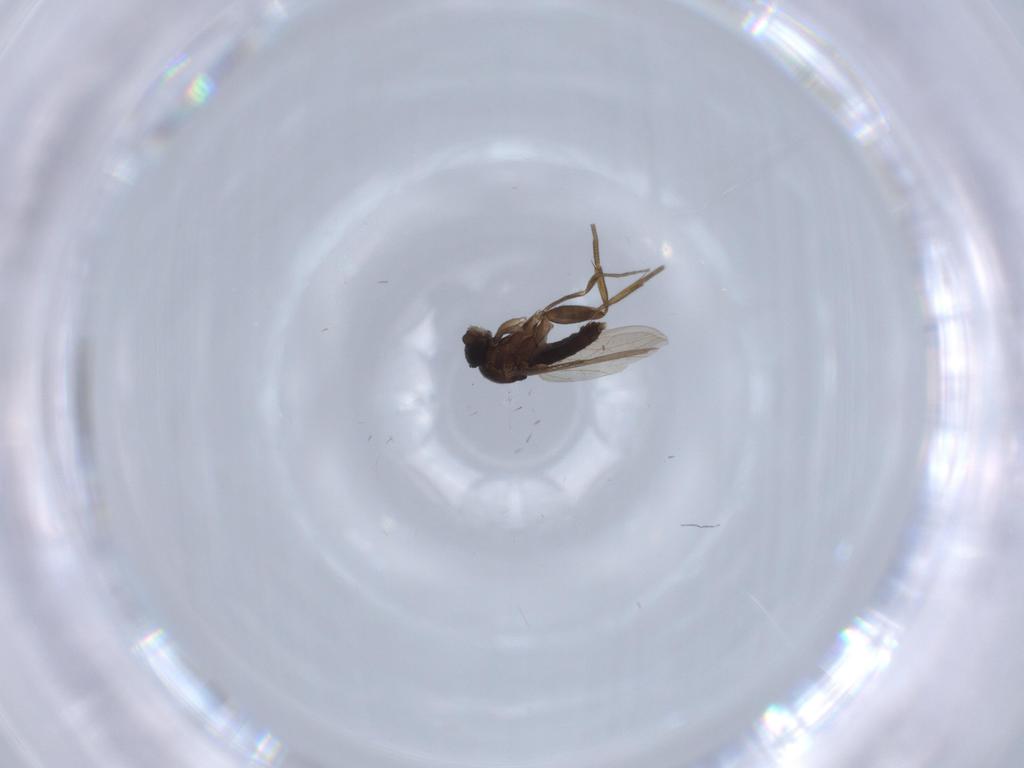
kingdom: Animalia
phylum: Arthropoda
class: Insecta
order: Diptera
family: Phoridae
